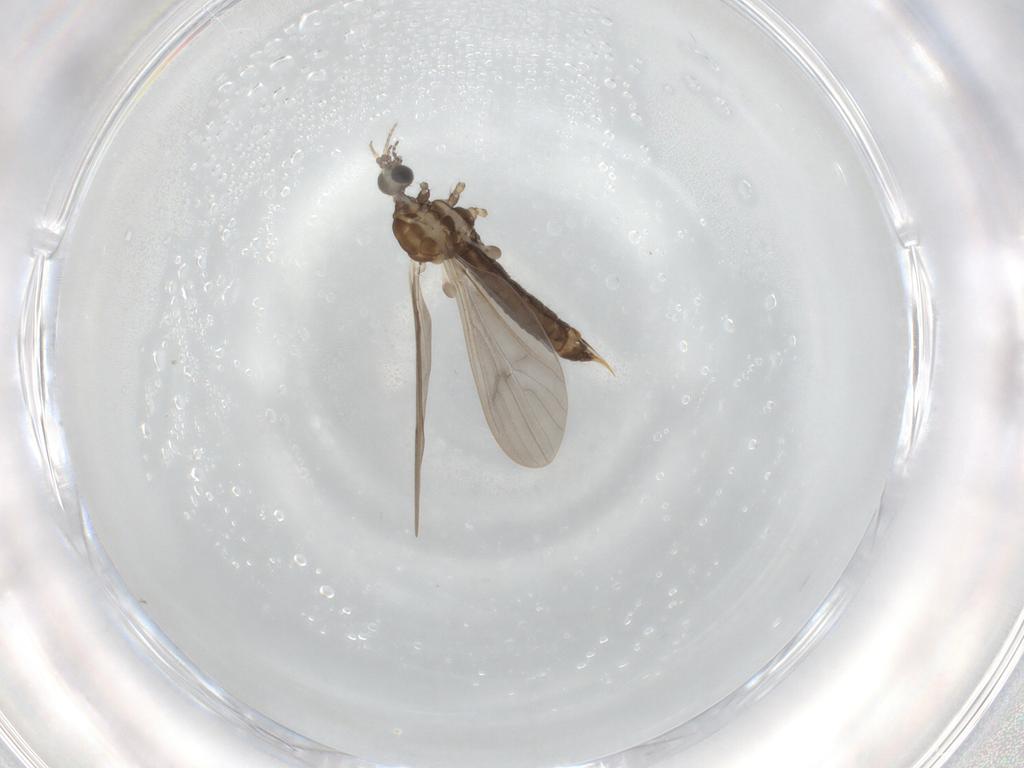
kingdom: Animalia
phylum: Arthropoda
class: Insecta
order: Diptera
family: Limoniidae
